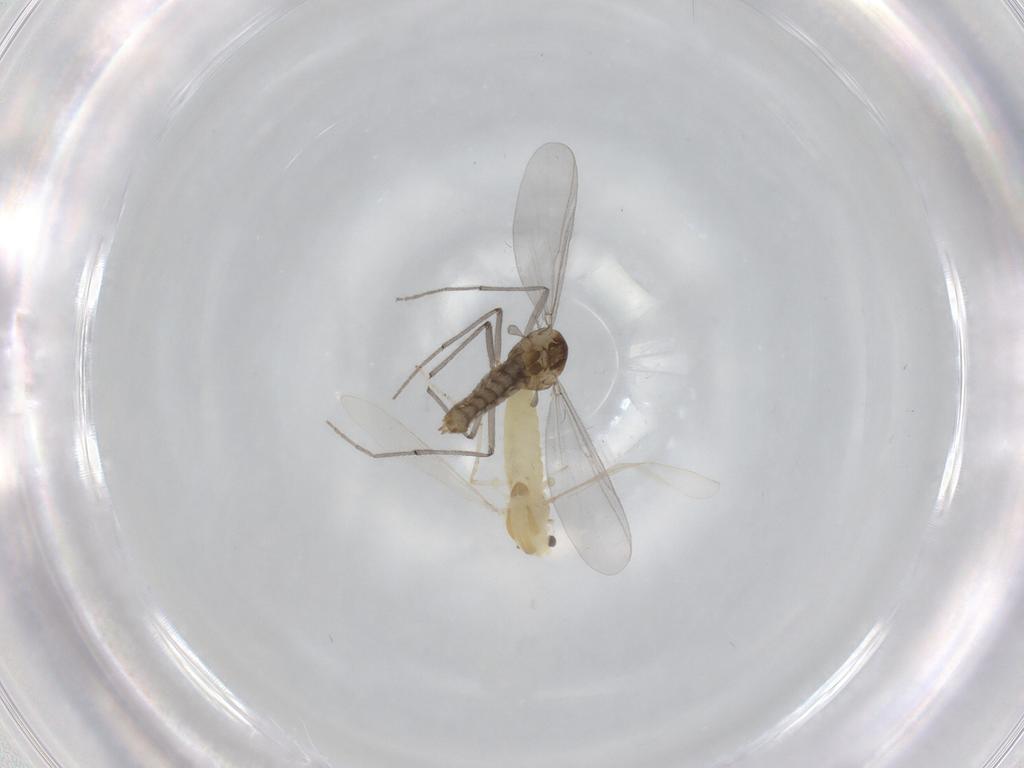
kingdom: Animalia
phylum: Arthropoda
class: Insecta
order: Diptera
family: Chironomidae
